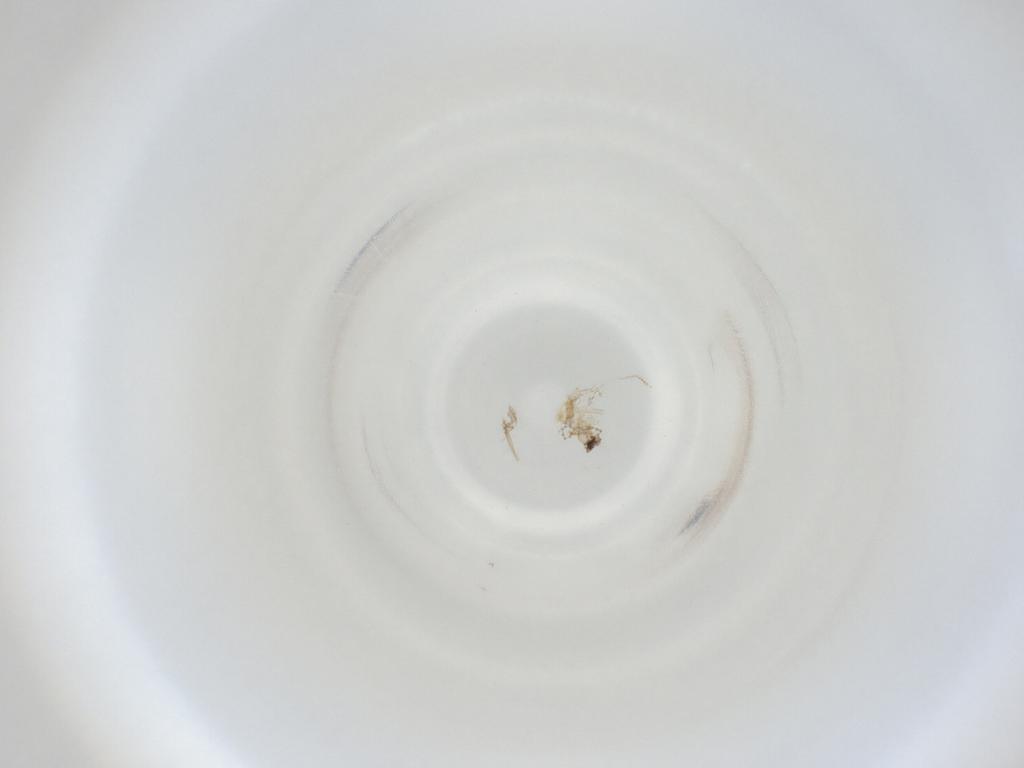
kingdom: Animalia
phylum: Arthropoda
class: Insecta
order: Diptera
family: Cecidomyiidae
